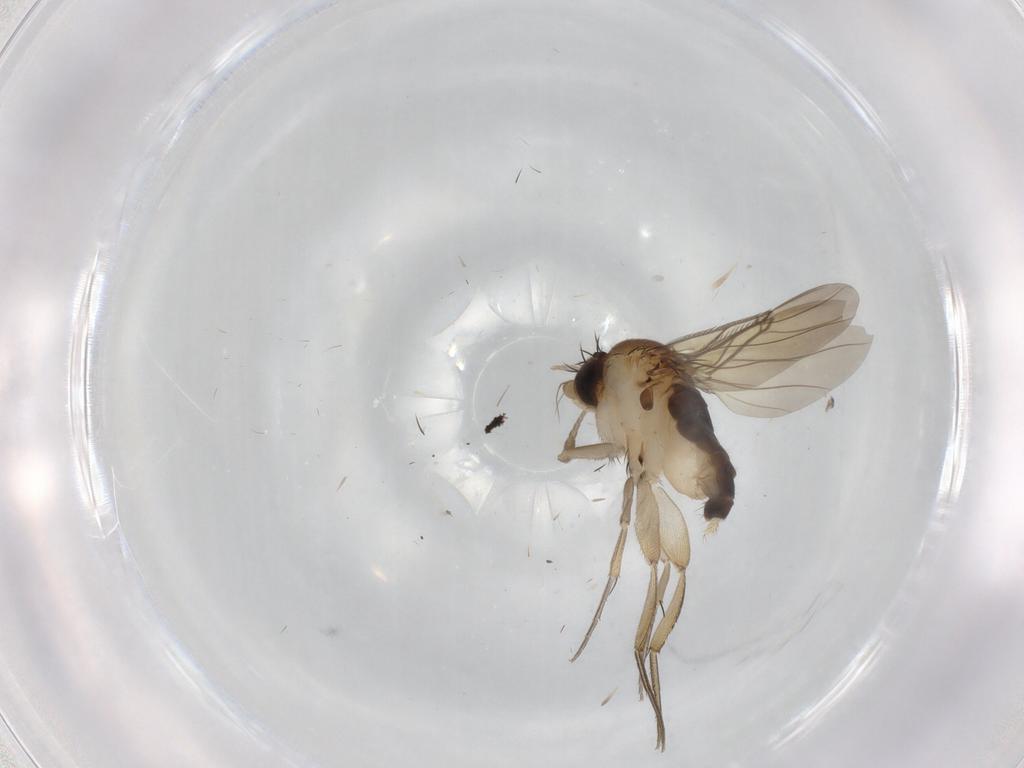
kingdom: Animalia
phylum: Arthropoda
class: Insecta
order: Diptera
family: Phoridae
